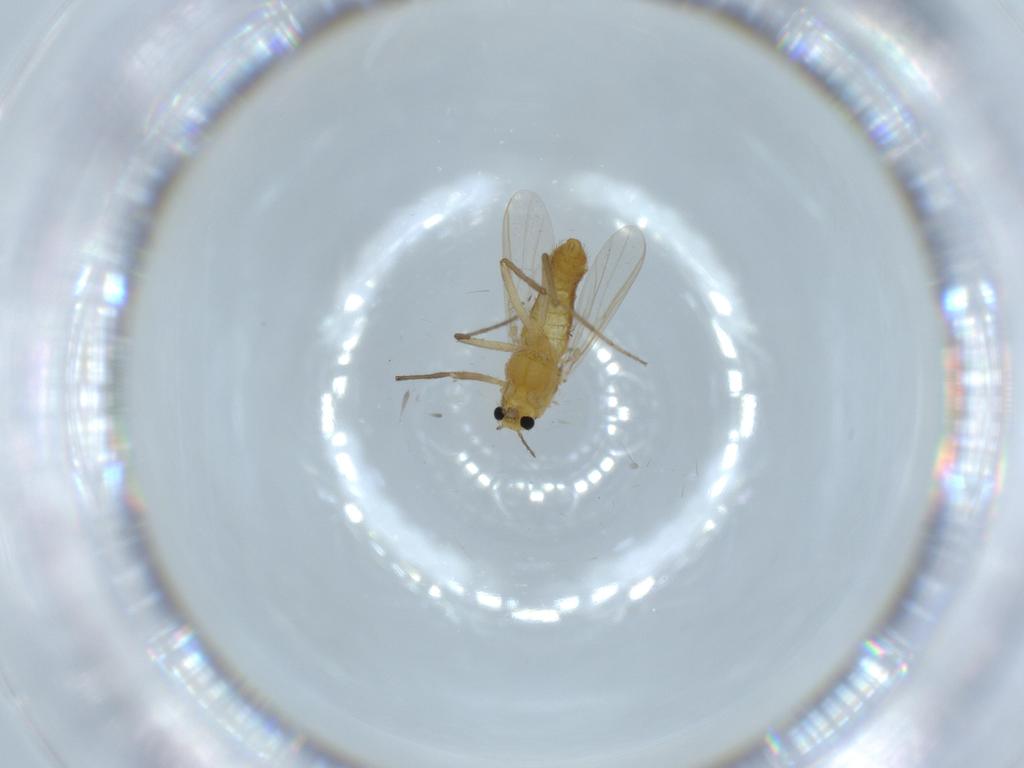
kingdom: Animalia
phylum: Arthropoda
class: Insecta
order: Diptera
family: Chironomidae
